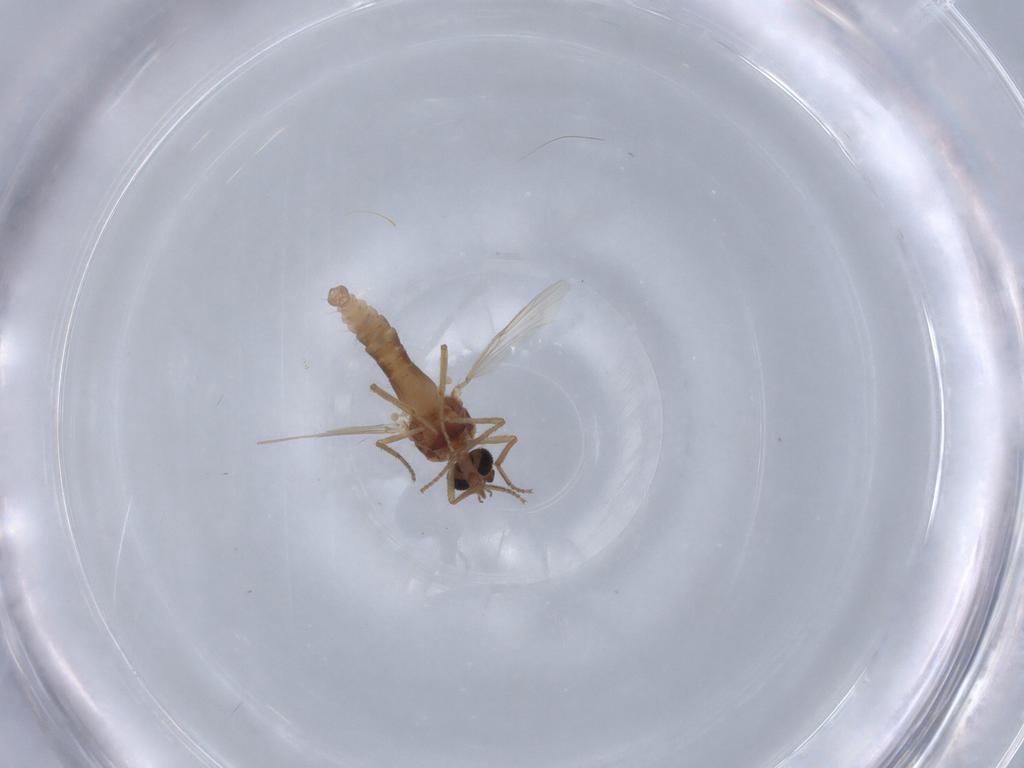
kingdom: Animalia
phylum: Arthropoda
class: Insecta
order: Diptera
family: Ceratopogonidae
